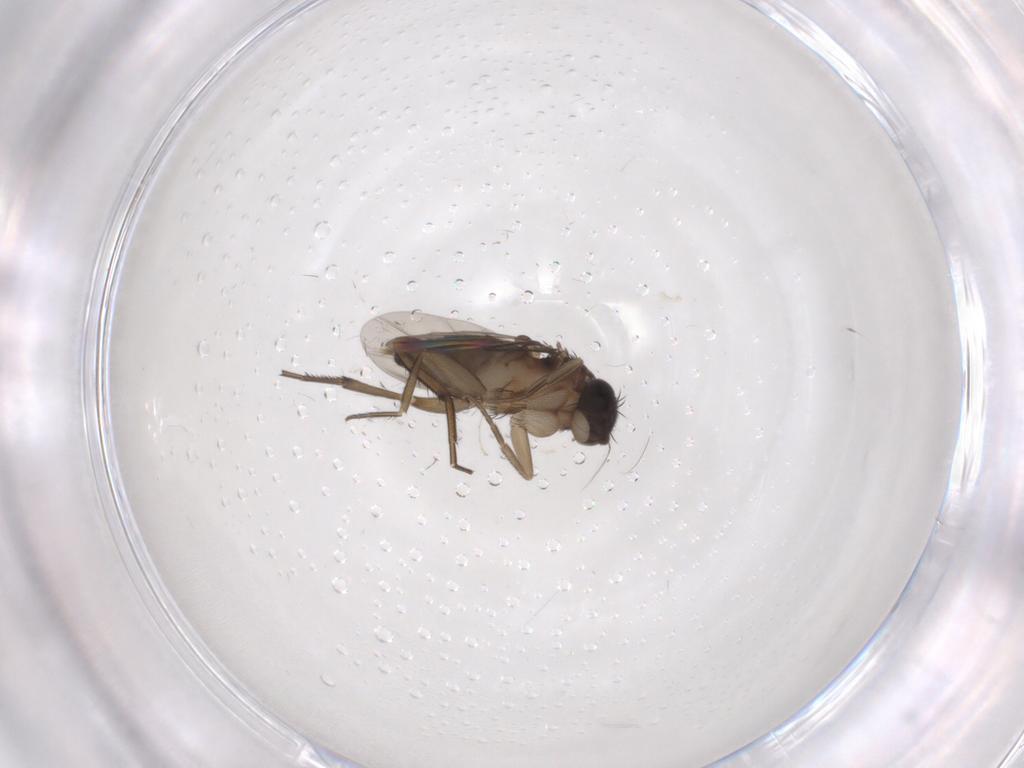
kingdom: Animalia
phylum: Arthropoda
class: Insecta
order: Diptera
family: Phoridae
